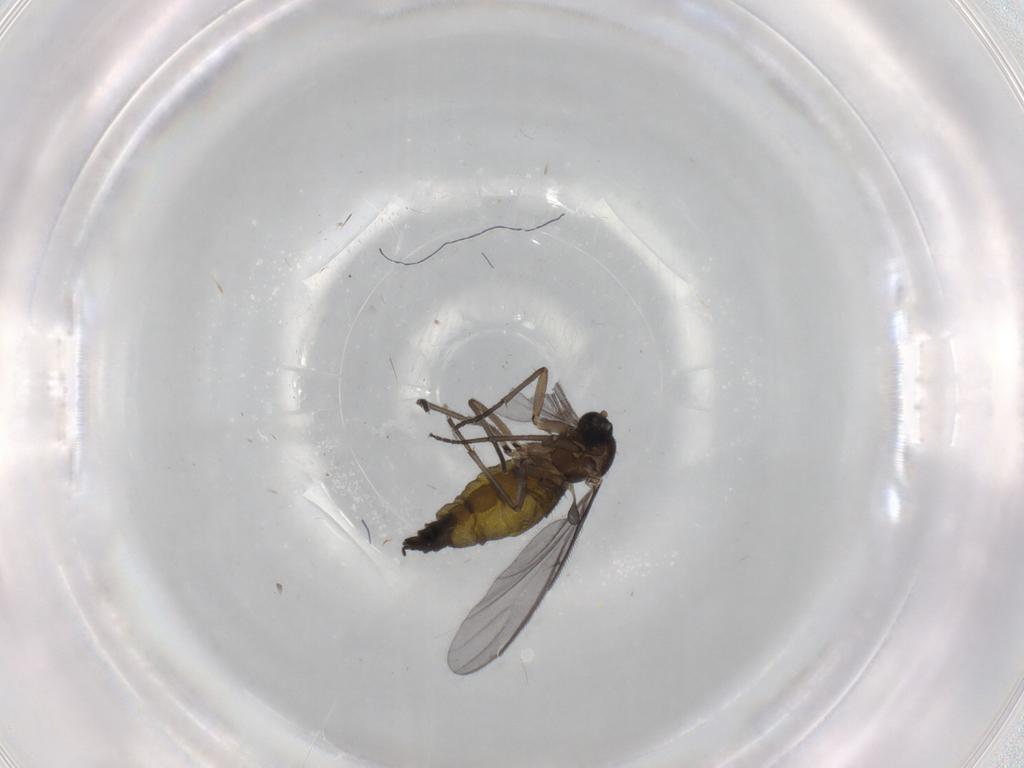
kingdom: Animalia
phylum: Arthropoda
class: Insecta
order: Diptera
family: Sciaridae
